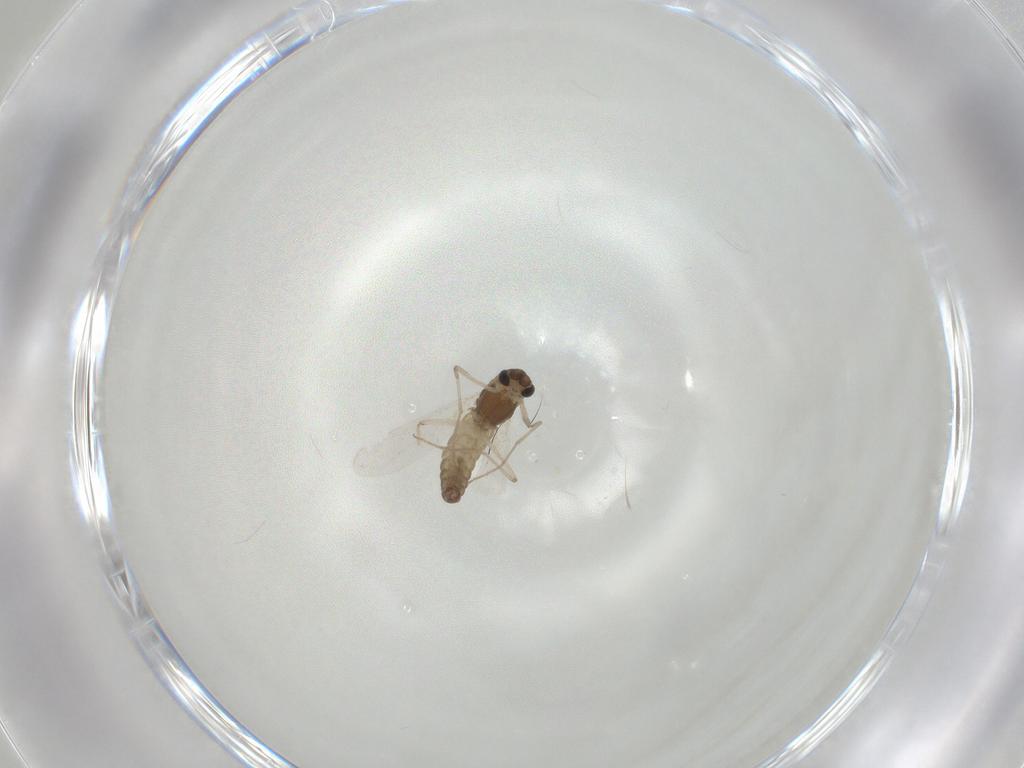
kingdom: Animalia
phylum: Arthropoda
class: Insecta
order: Diptera
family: Chironomidae
